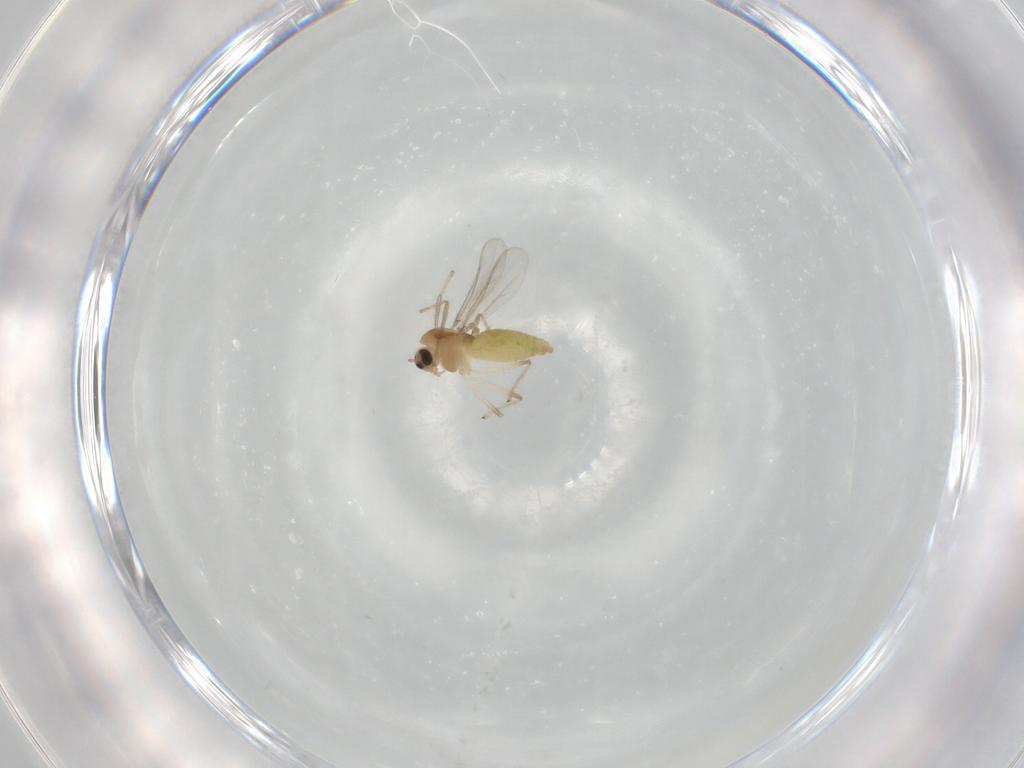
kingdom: Animalia
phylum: Arthropoda
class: Insecta
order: Diptera
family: Chironomidae
